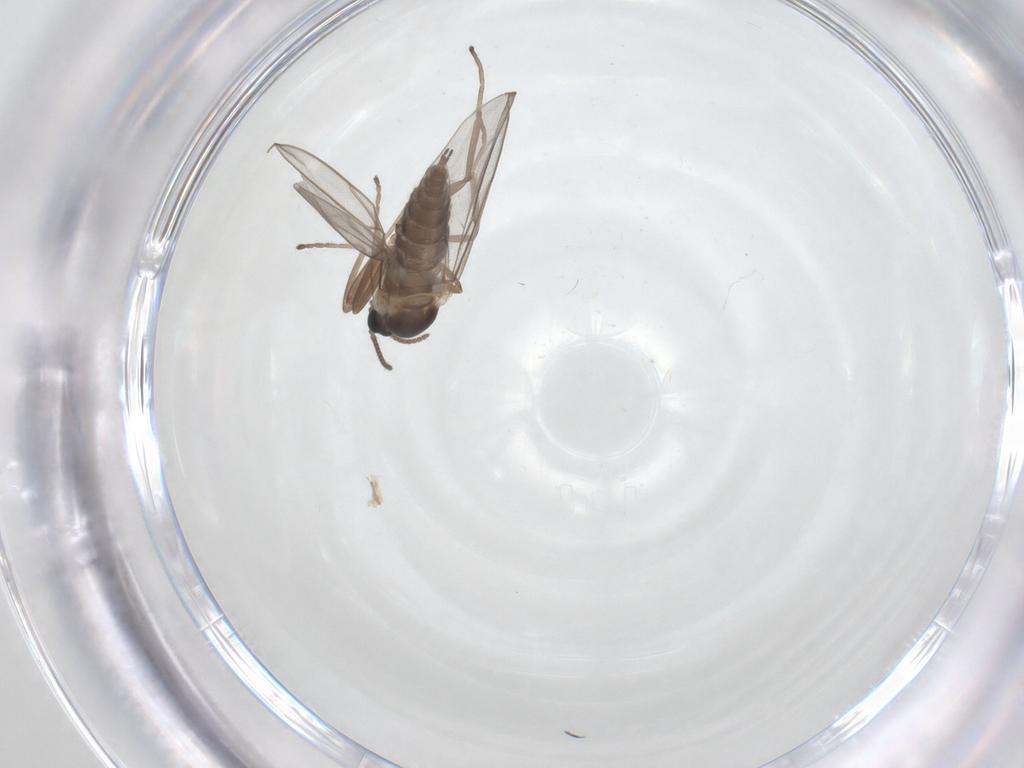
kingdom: Animalia
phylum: Arthropoda
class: Insecta
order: Diptera
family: Cecidomyiidae
